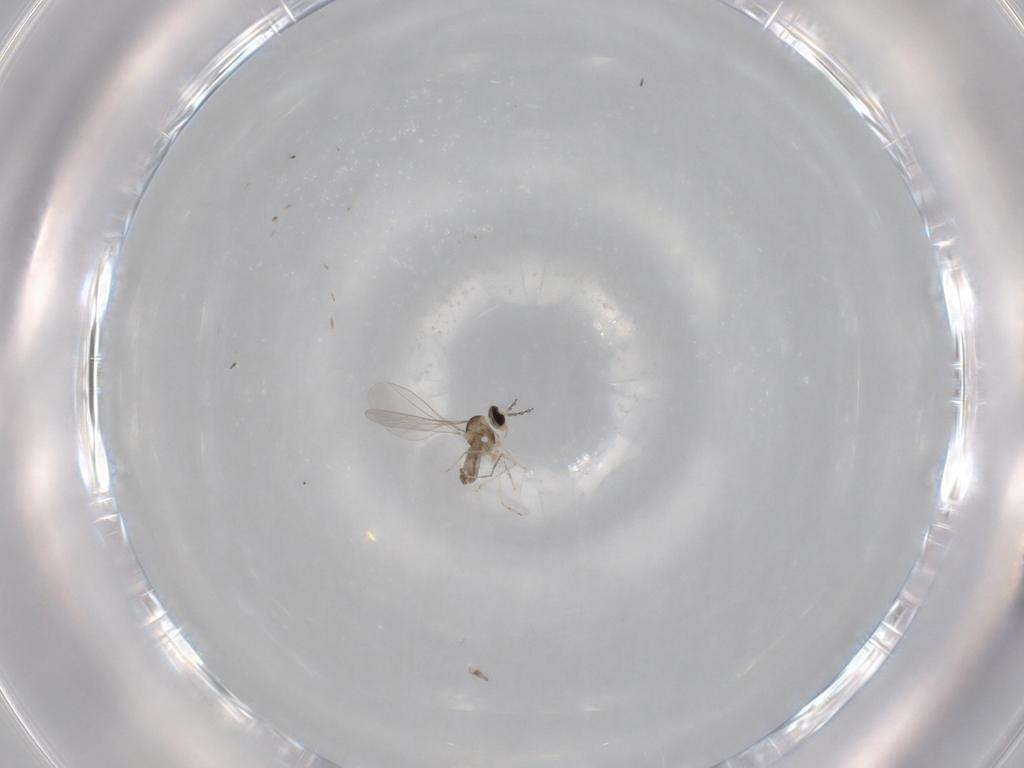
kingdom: Animalia
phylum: Arthropoda
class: Insecta
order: Diptera
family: Cecidomyiidae
